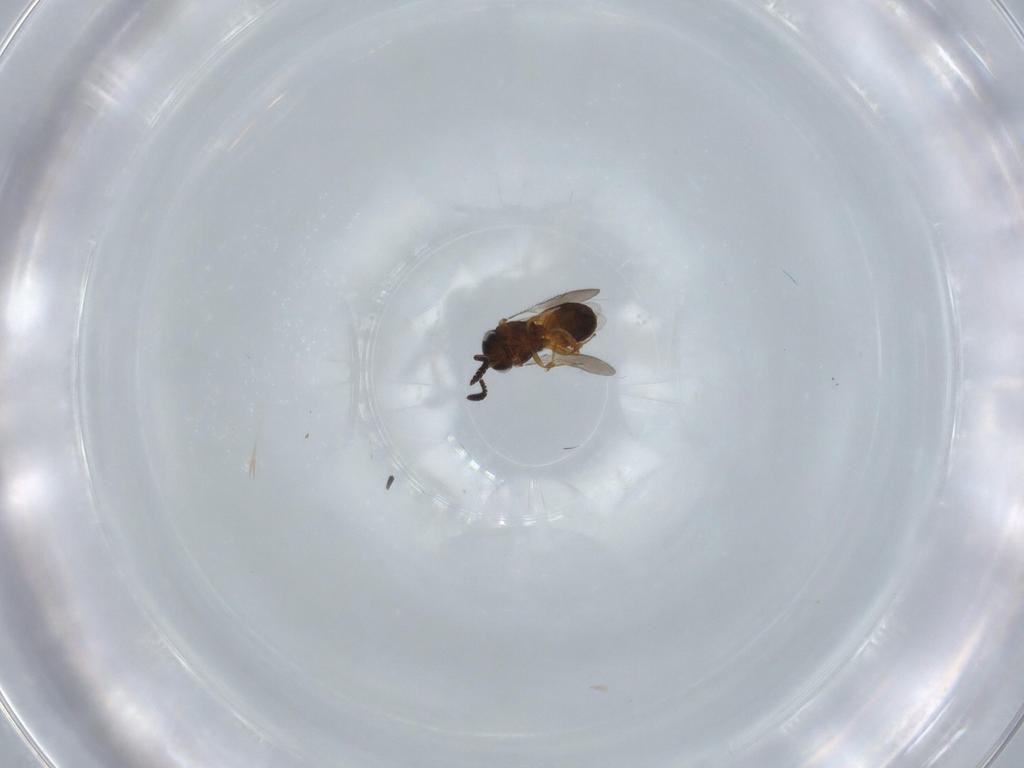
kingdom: Animalia
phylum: Arthropoda
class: Insecta
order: Hymenoptera
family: Scelionidae
